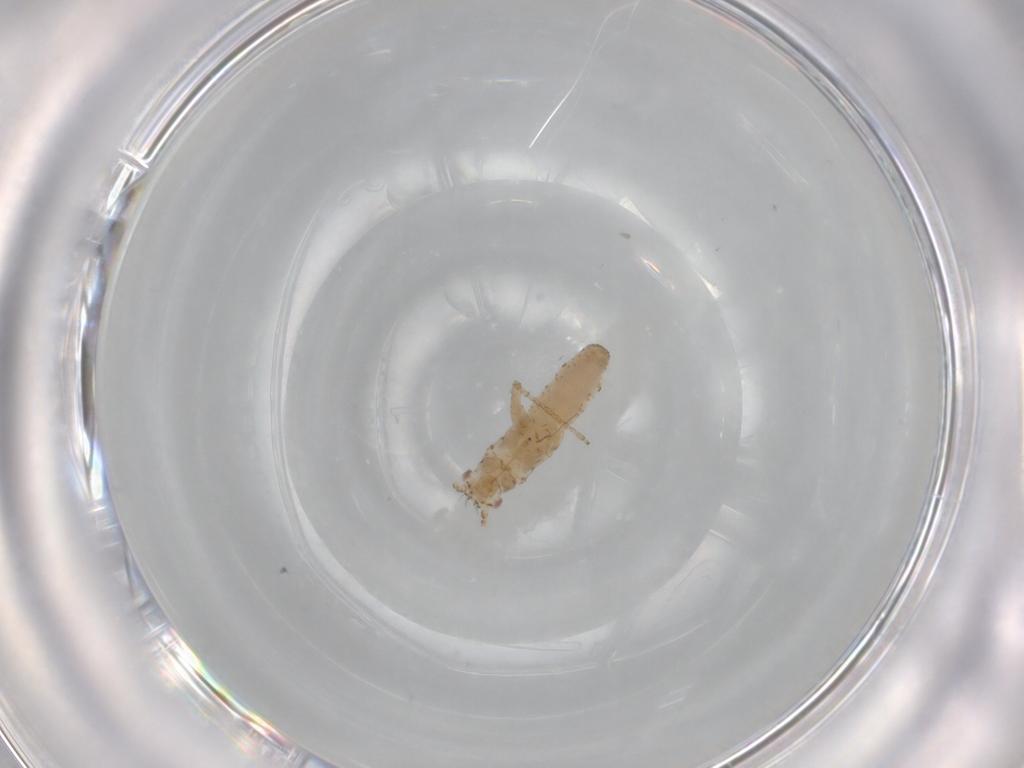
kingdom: Animalia
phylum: Arthropoda
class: Insecta
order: Hemiptera
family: Aphididae
